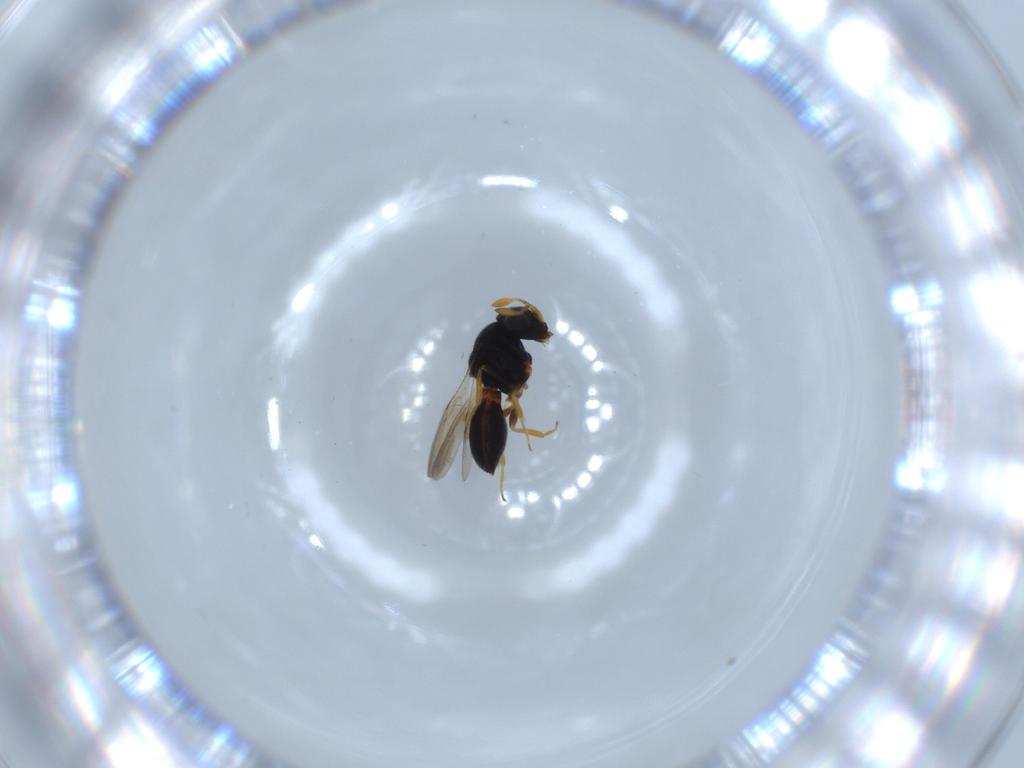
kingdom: Animalia
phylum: Arthropoda
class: Insecta
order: Hymenoptera
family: Scelionidae
